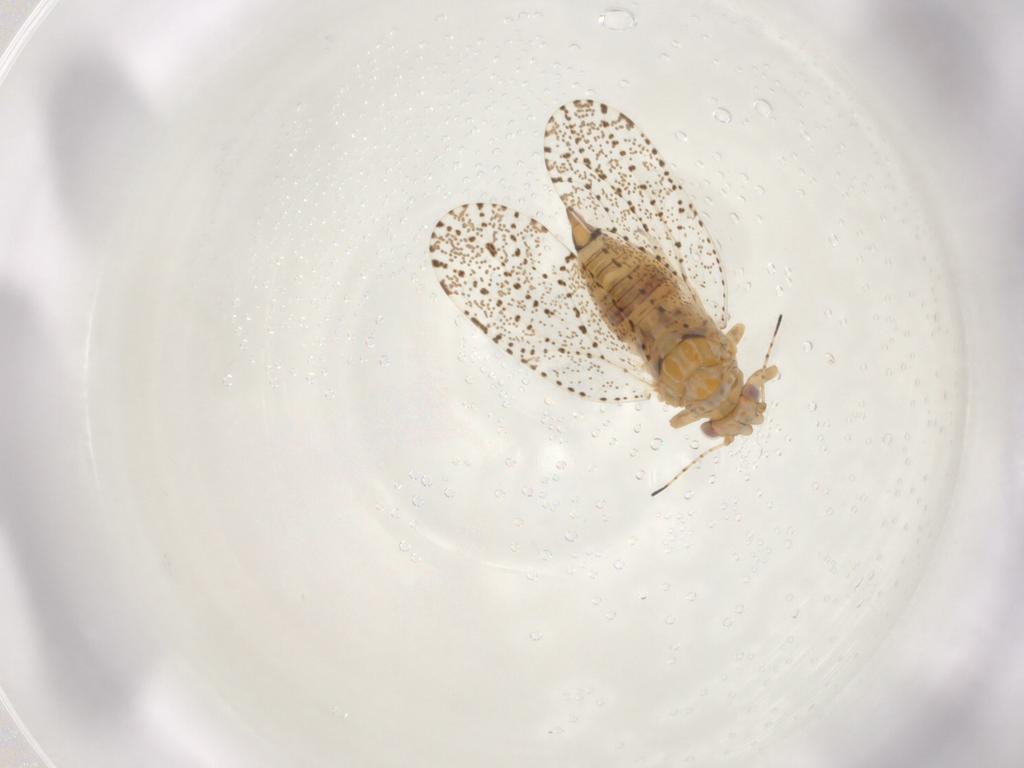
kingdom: Animalia
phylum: Arthropoda
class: Insecta
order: Hemiptera
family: Psylloidea_incertae_sedis
